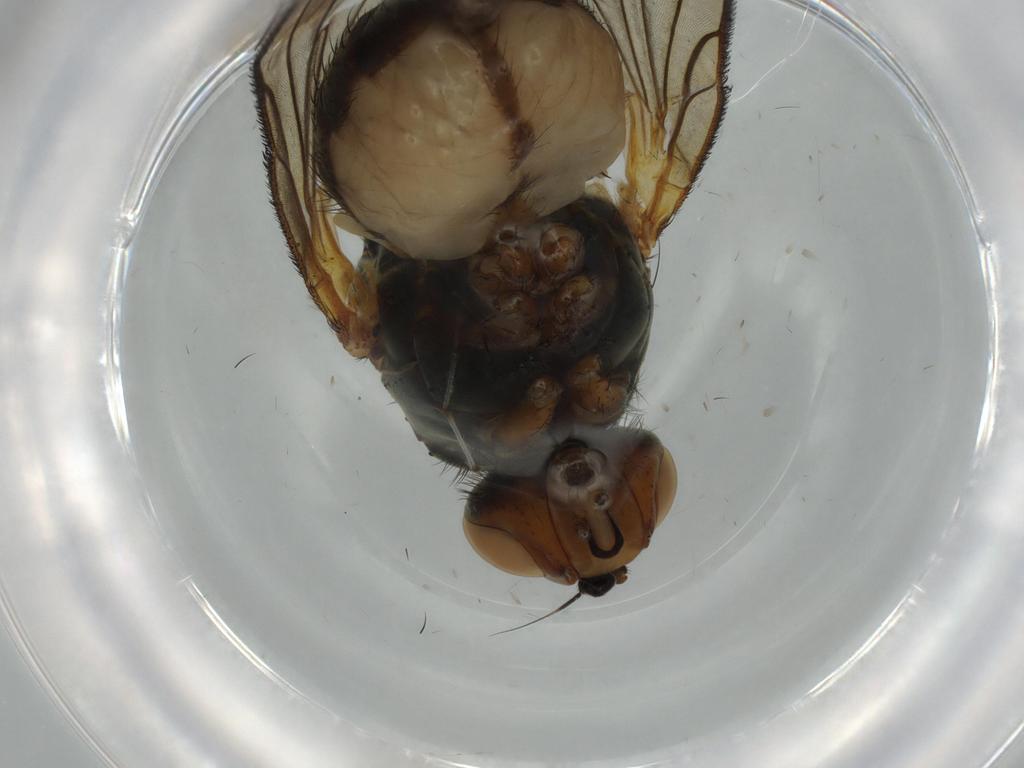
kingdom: Animalia
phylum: Arthropoda
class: Insecta
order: Diptera
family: Anthomyiidae
